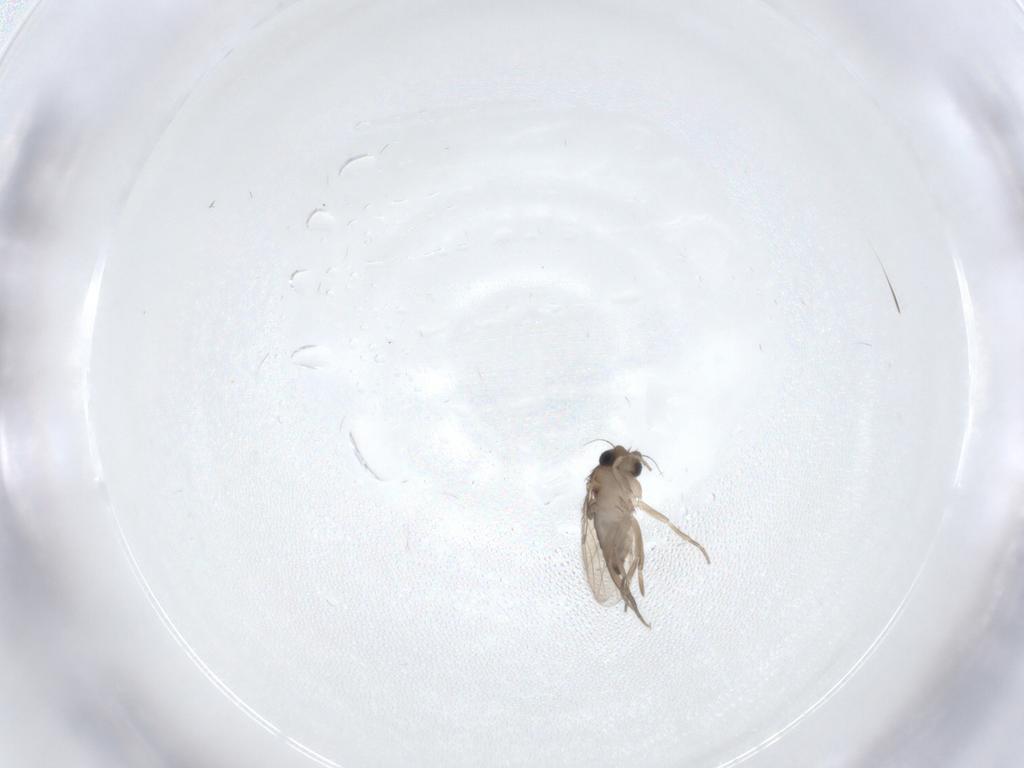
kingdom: Animalia
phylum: Arthropoda
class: Insecta
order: Diptera
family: Phoridae
